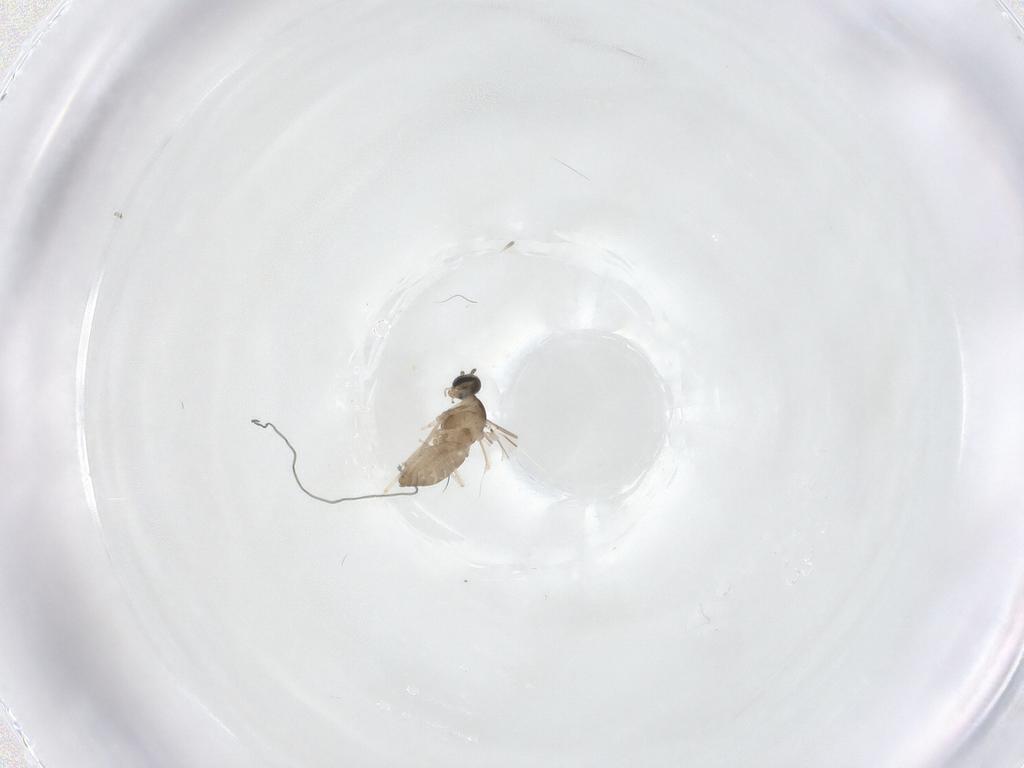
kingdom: Animalia
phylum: Arthropoda
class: Insecta
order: Diptera
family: Cecidomyiidae
